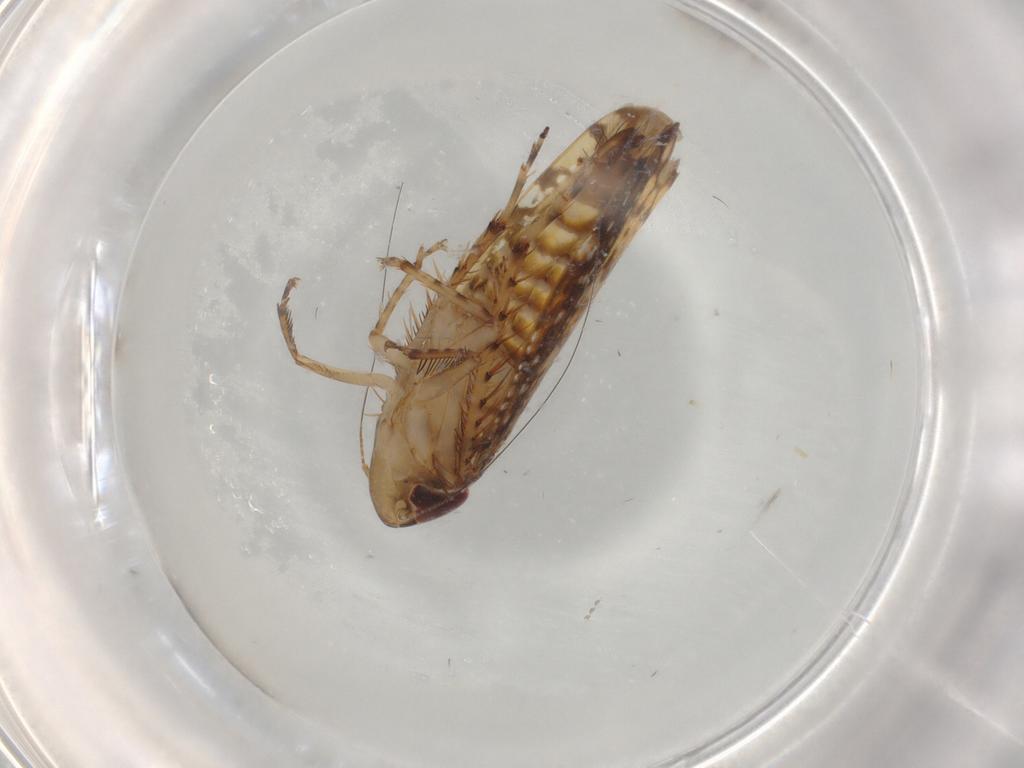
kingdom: Animalia
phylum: Arthropoda
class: Insecta
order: Hemiptera
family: Cicadellidae
